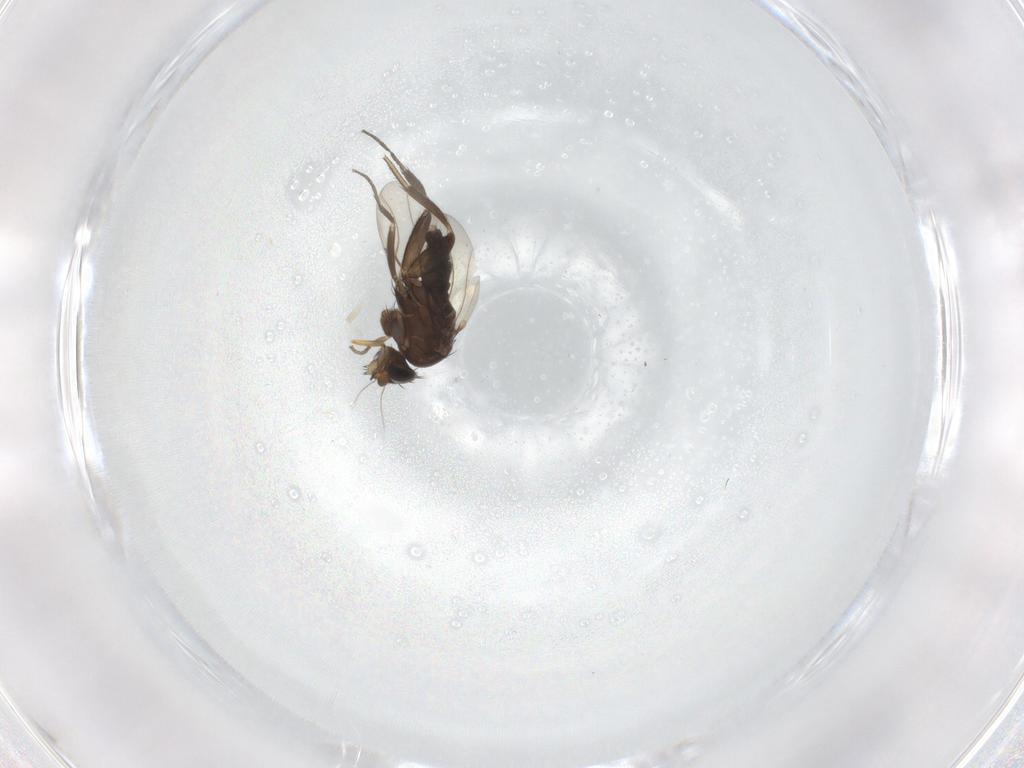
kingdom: Animalia
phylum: Arthropoda
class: Insecta
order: Diptera
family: Phoridae
